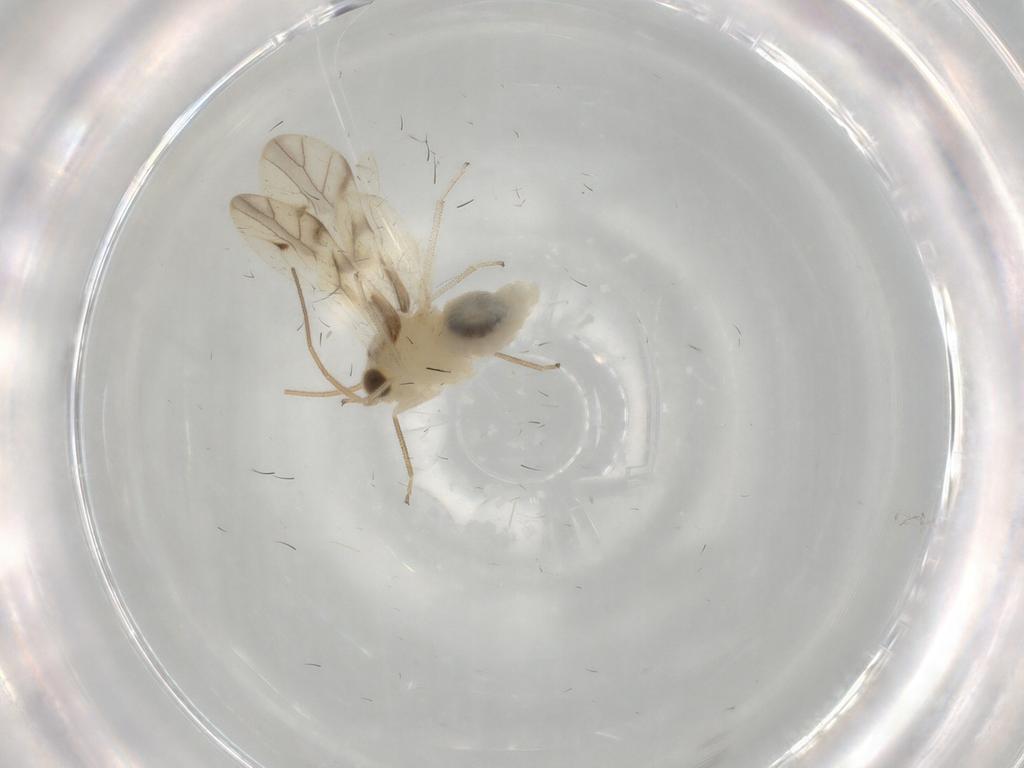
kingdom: Animalia
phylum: Arthropoda
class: Insecta
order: Psocodea
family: Caeciliusidae
